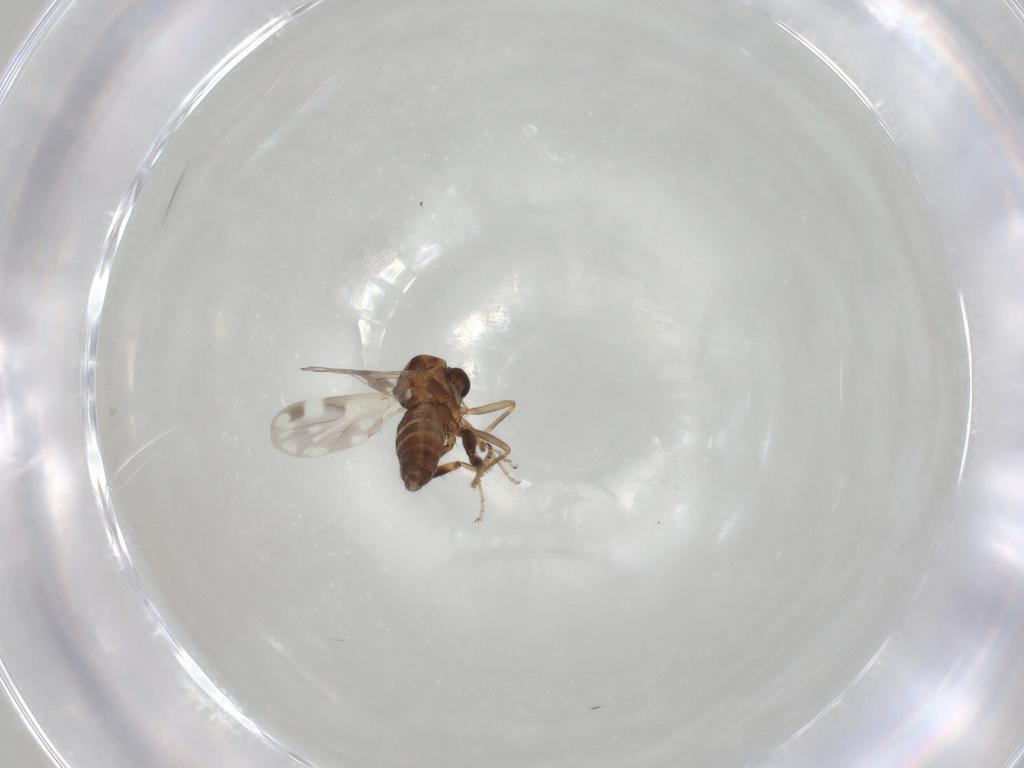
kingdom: Animalia
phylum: Arthropoda
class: Insecta
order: Diptera
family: Ceratopogonidae
